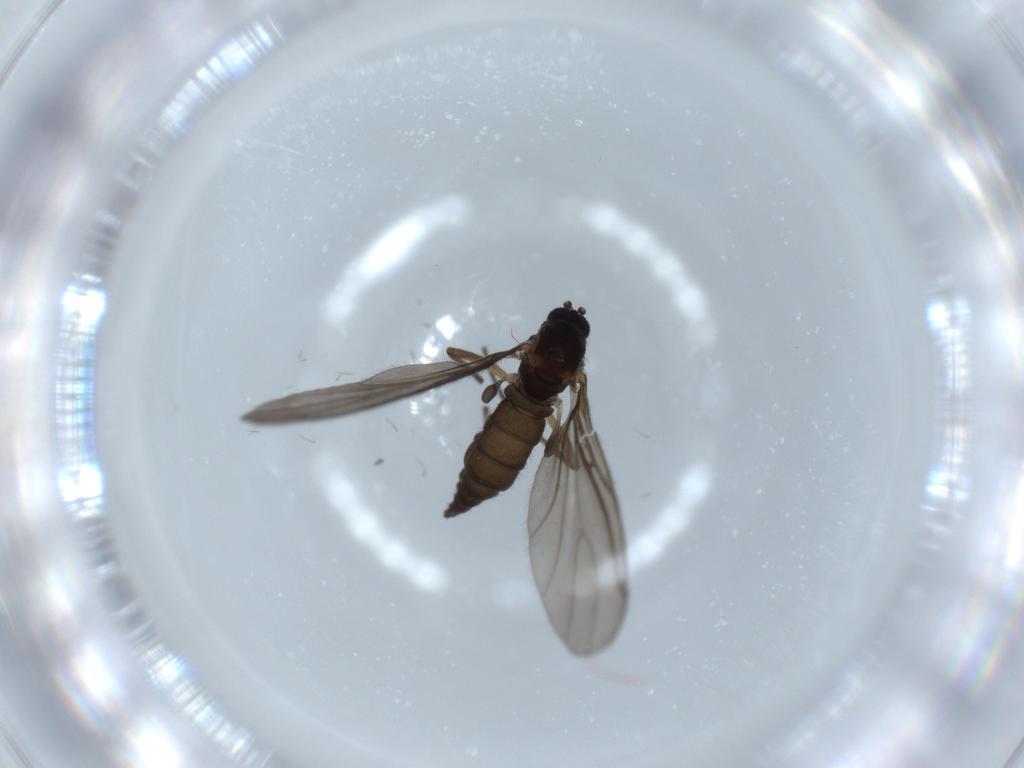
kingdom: Animalia
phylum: Arthropoda
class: Insecta
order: Diptera
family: Sciaridae
